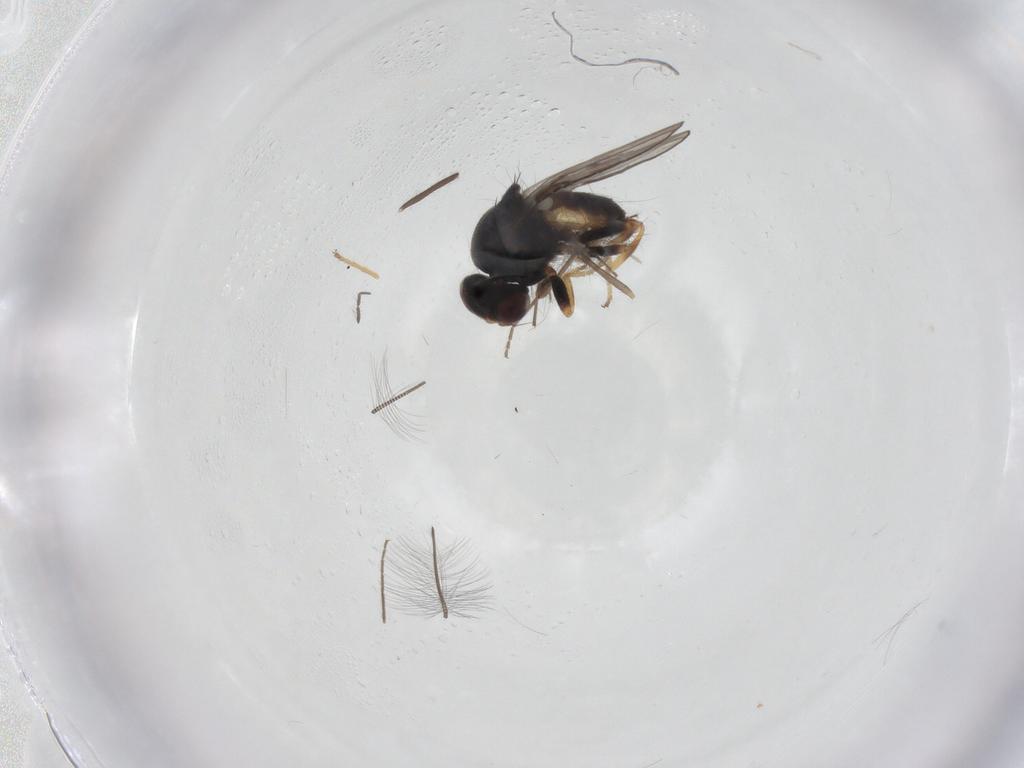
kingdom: Animalia
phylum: Arthropoda
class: Insecta
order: Diptera
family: Chloropidae
